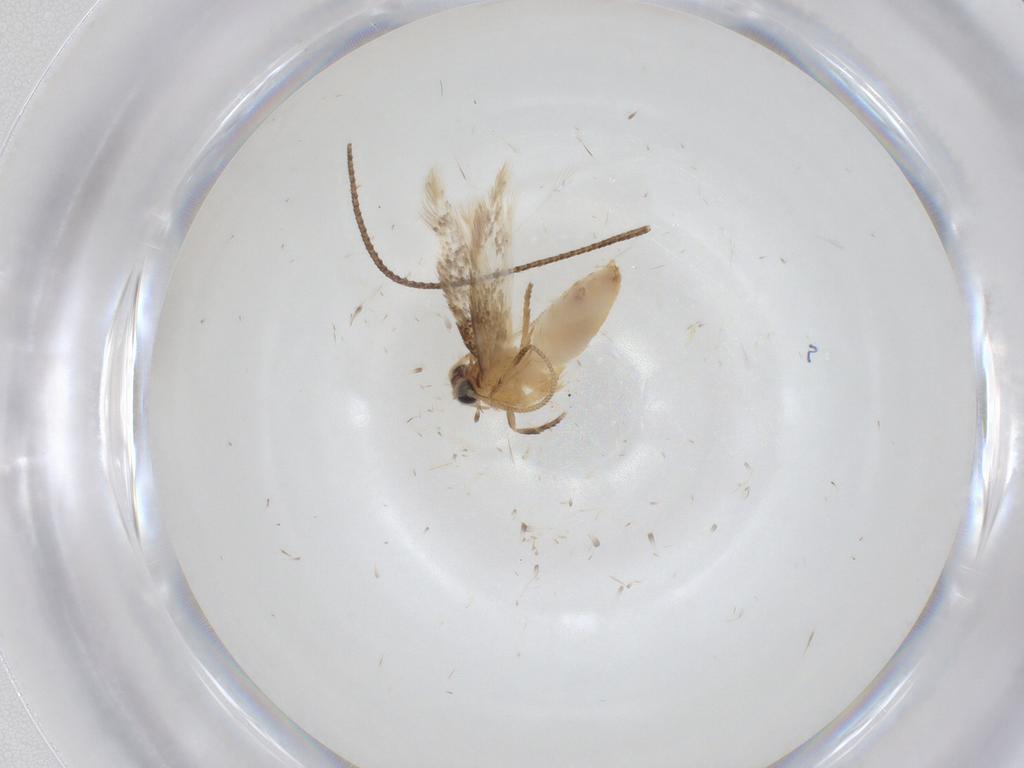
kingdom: Animalia
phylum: Arthropoda
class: Insecta
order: Lepidoptera
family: Nepticulidae
